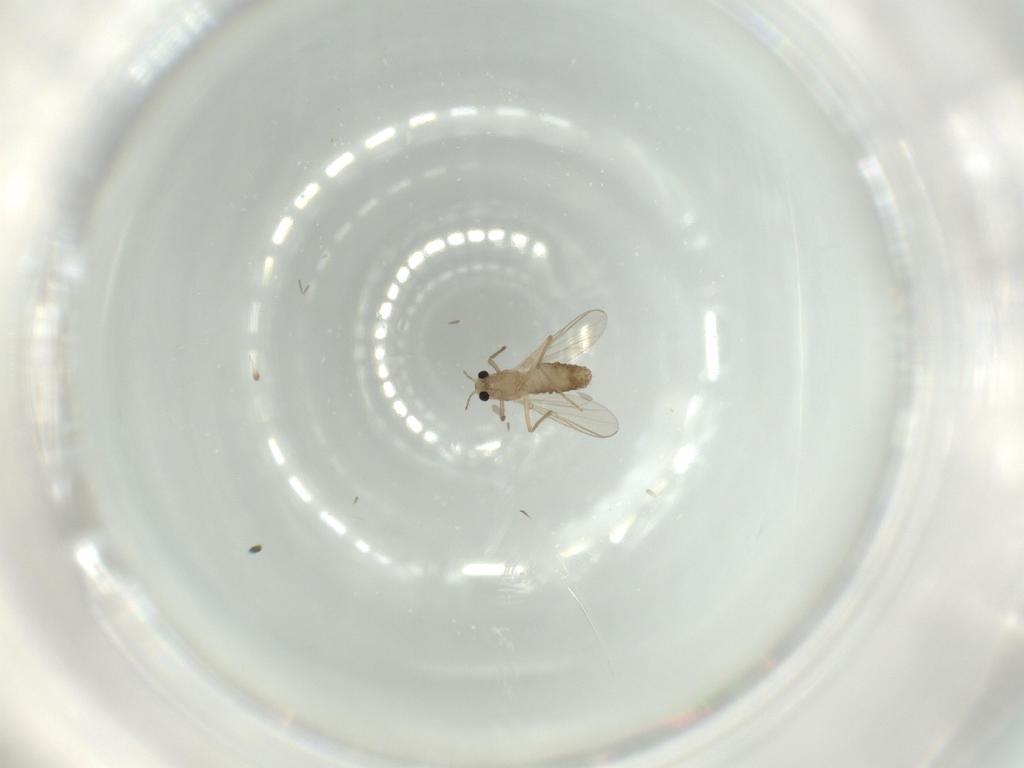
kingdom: Animalia
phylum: Arthropoda
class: Insecta
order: Diptera
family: Chironomidae
